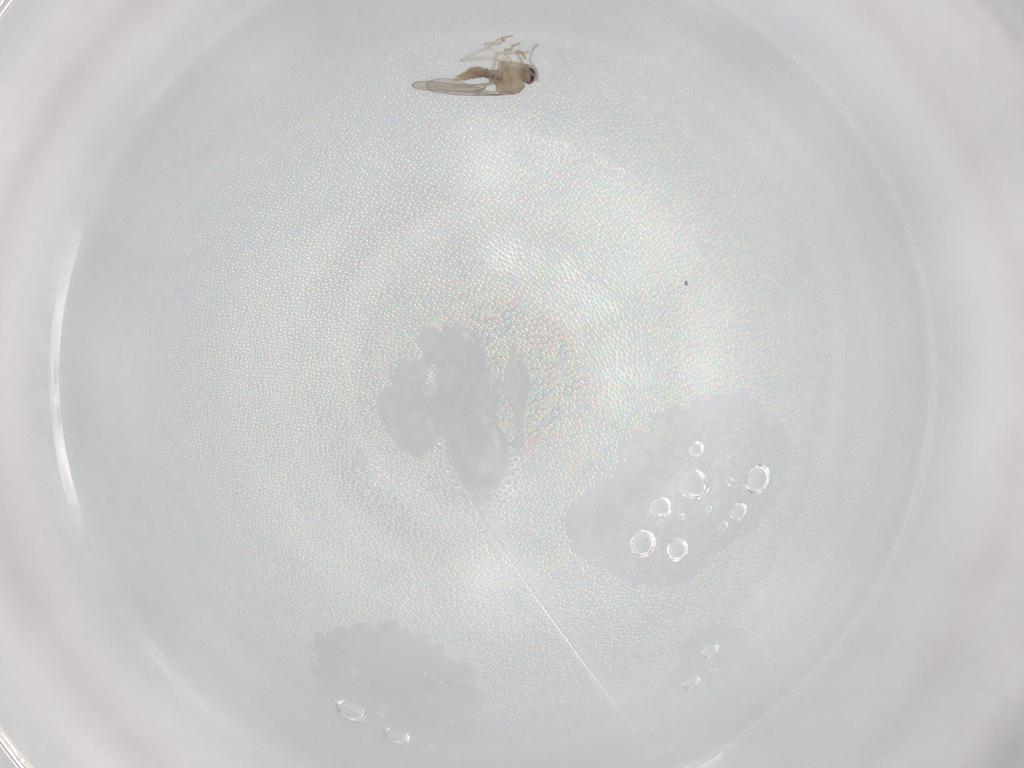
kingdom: Animalia
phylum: Arthropoda
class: Insecta
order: Diptera
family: Cecidomyiidae
